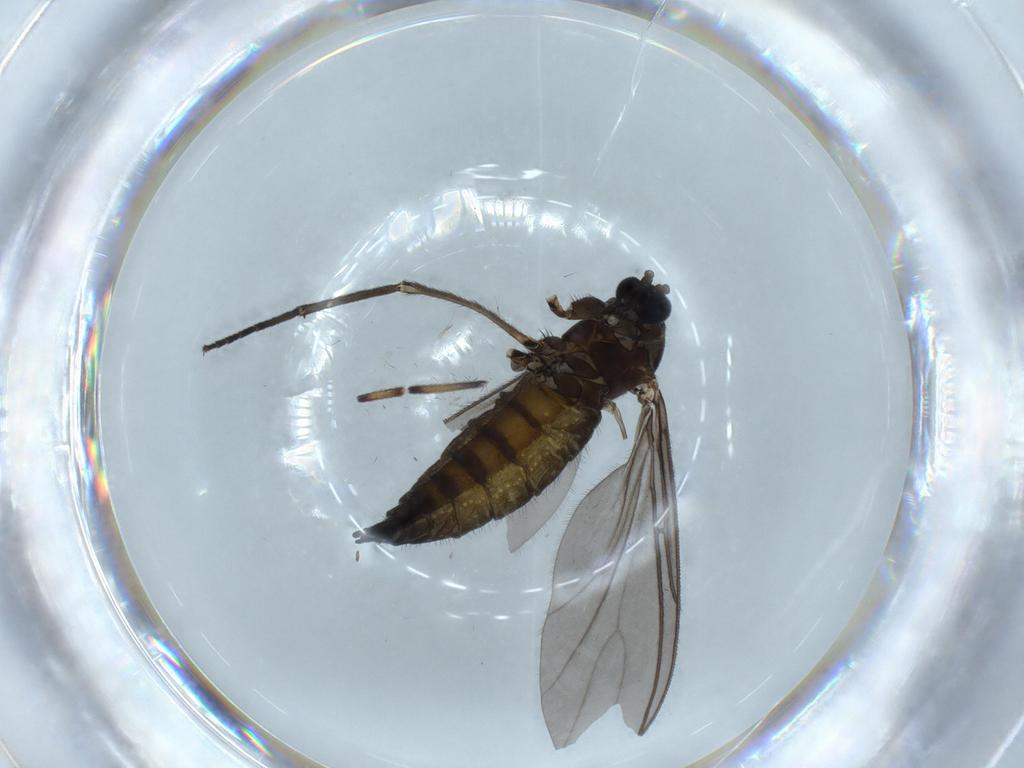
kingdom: Animalia
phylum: Arthropoda
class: Insecta
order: Diptera
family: Sciaridae
